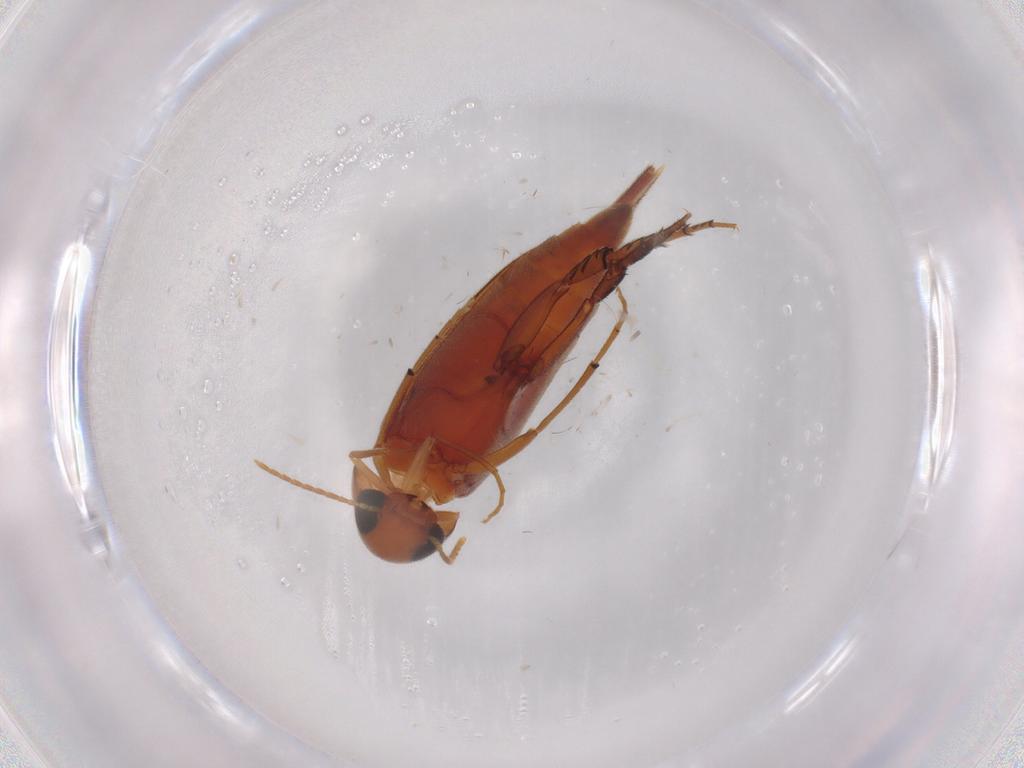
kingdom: Animalia
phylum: Arthropoda
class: Insecta
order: Coleoptera
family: Mordellidae
